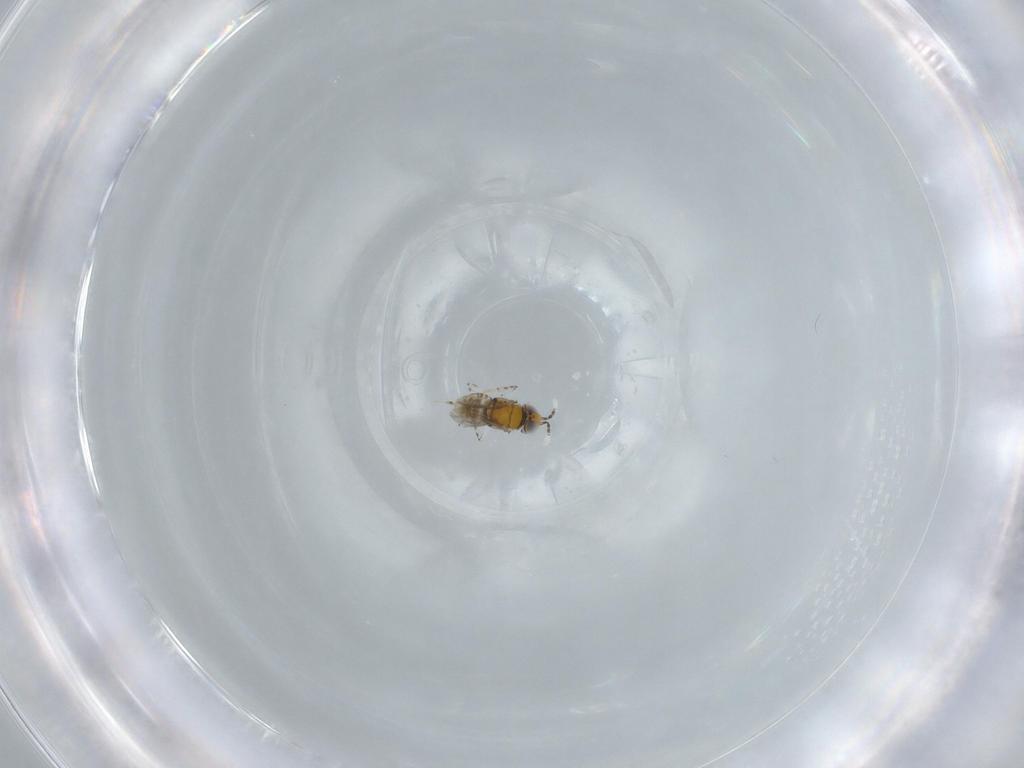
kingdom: Animalia
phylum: Arthropoda
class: Insecta
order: Hymenoptera
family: Encyrtidae
